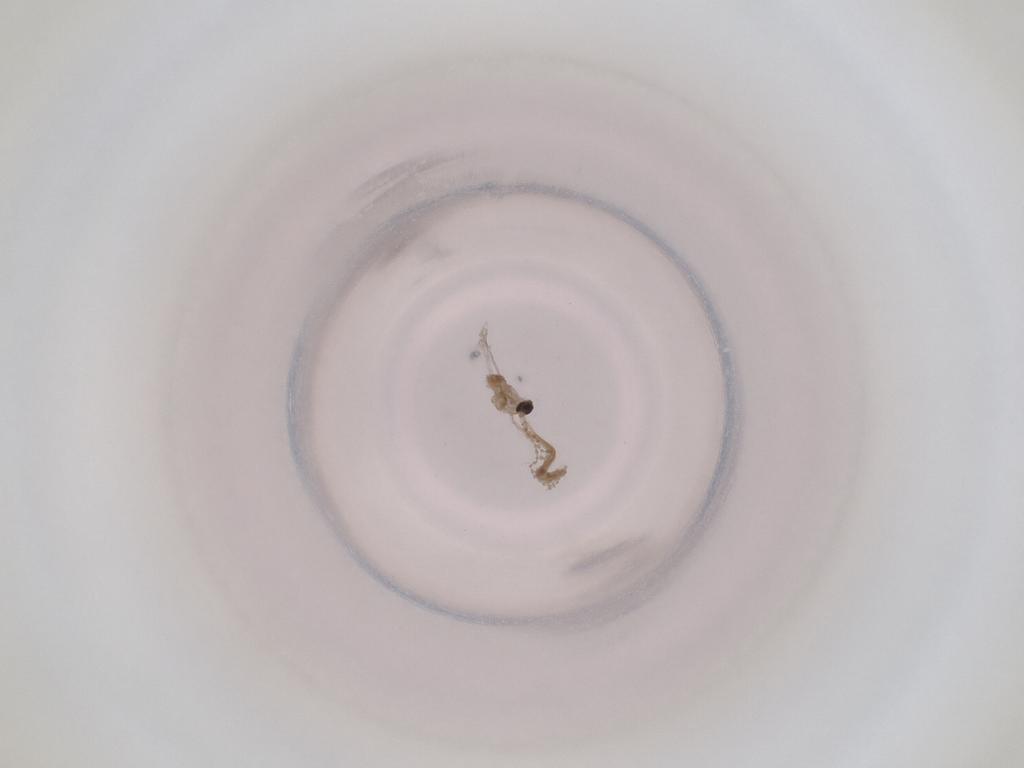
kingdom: Animalia
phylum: Arthropoda
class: Insecta
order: Diptera
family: Cecidomyiidae
